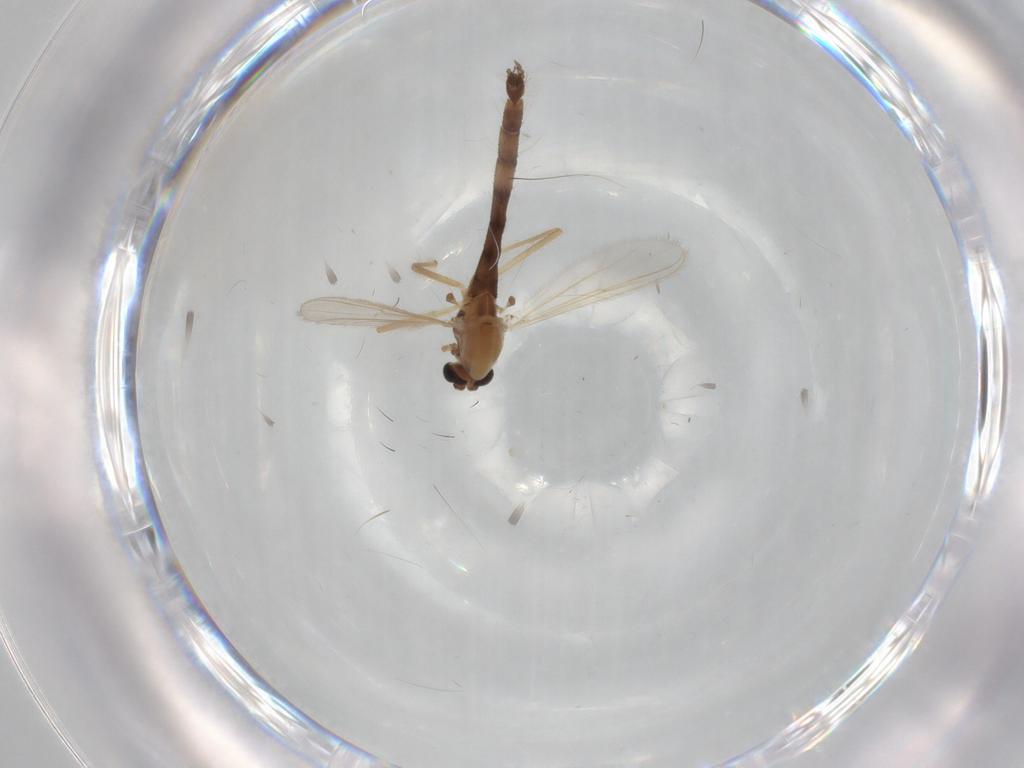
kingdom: Animalia
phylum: Arthropoda
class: Insecta
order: Diptera
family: Chironomidae
